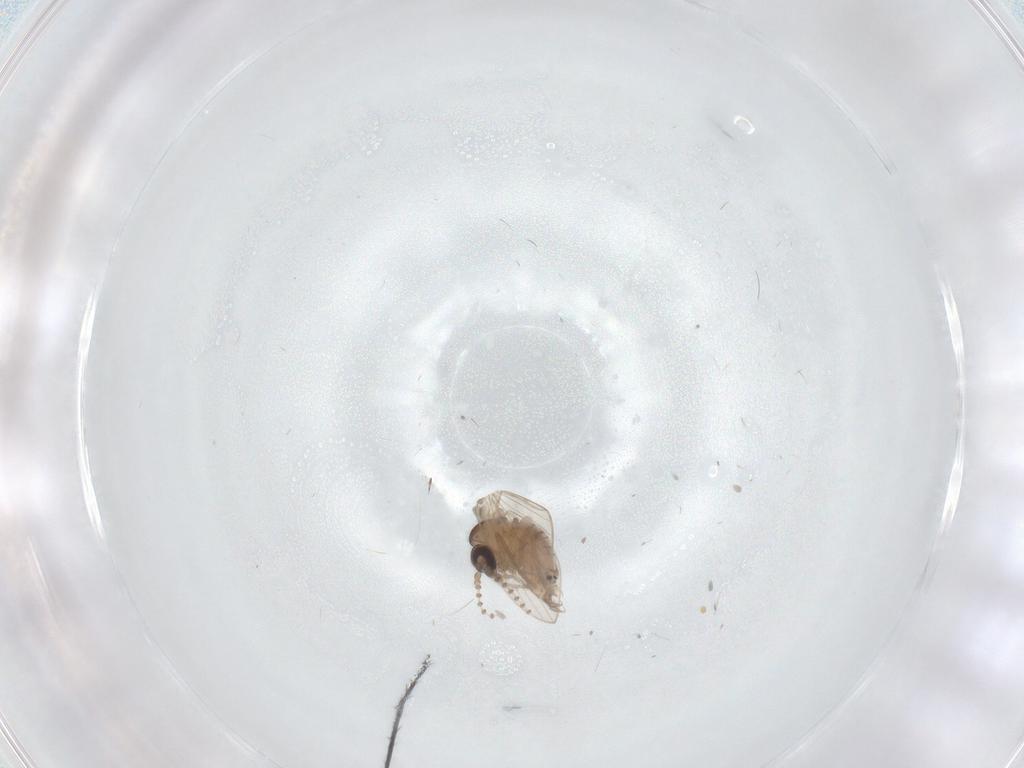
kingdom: Animalia
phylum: Arthropoda
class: Insecta
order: Diptera
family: Psychodidae
